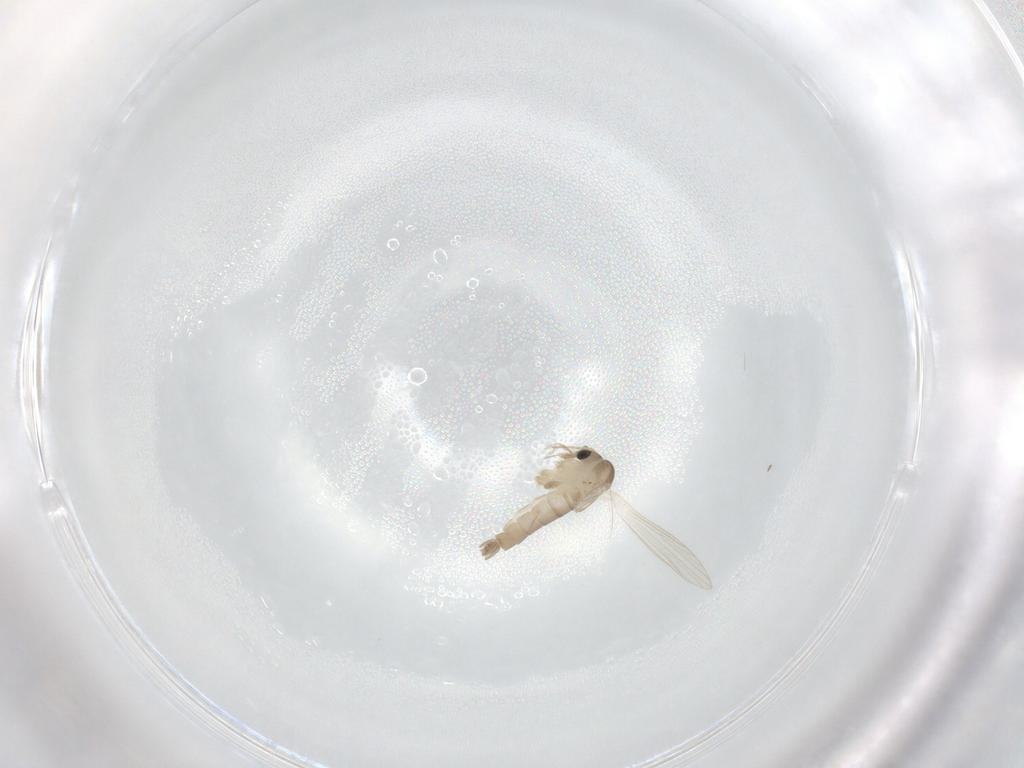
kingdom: Animalia
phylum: Arthropoda
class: Insecta
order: Diptera
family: Psychodidae
